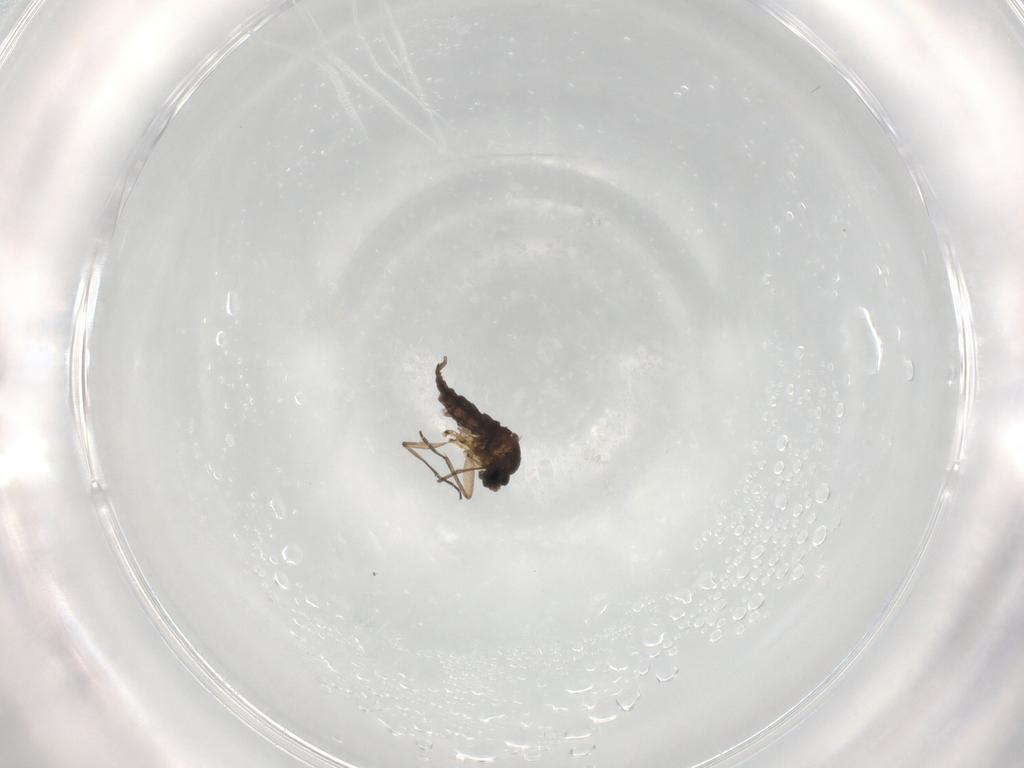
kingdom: Animalia
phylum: Arthropoda
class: Insecta
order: Diptera
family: Sciaridae
